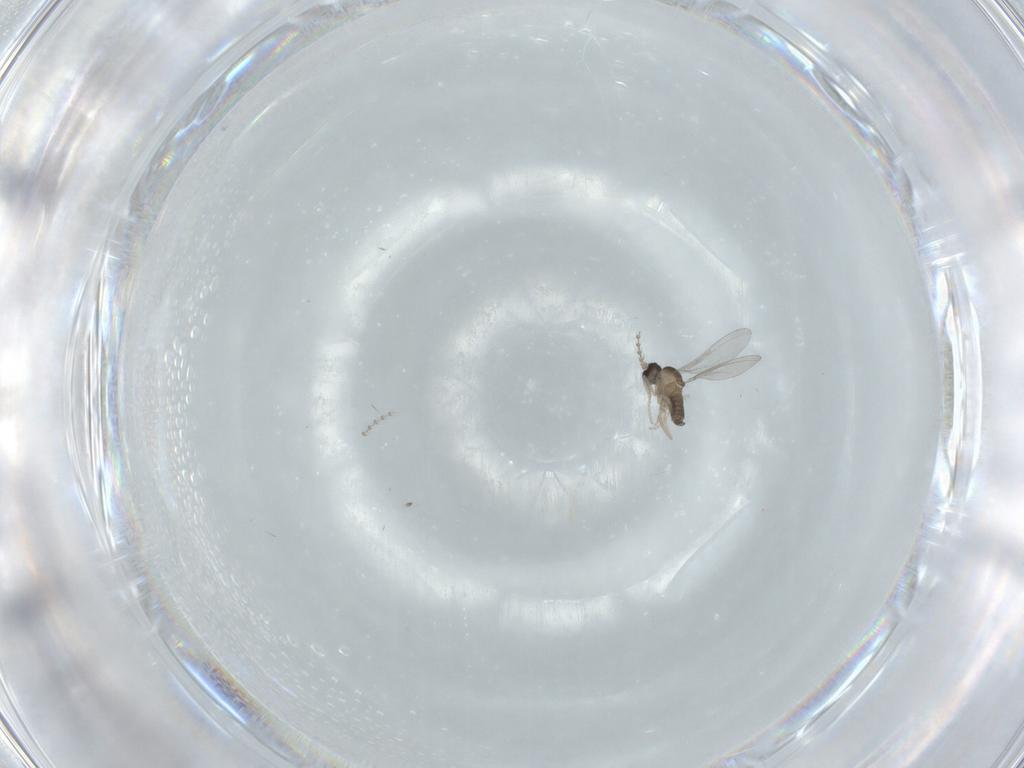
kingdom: Animalia
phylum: Arthropoda
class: Insecta
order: Diptera
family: Cecidomyiidae
